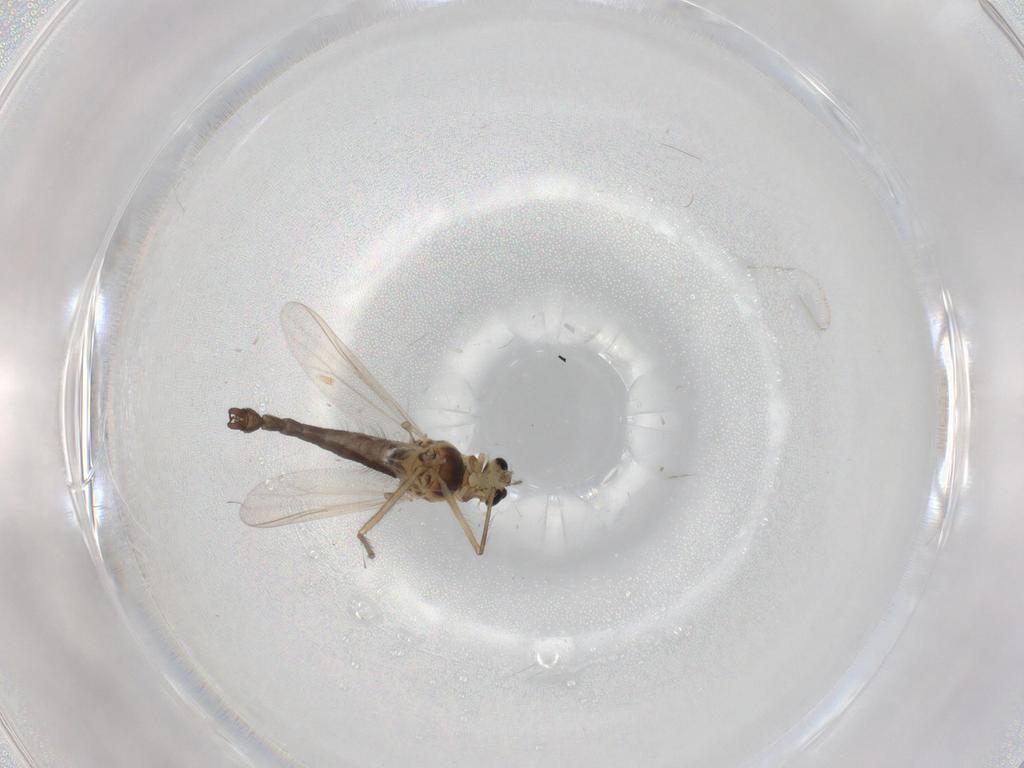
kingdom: Animalia
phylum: Arthropoda
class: Insecta
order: Diptera
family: Chironomidae
